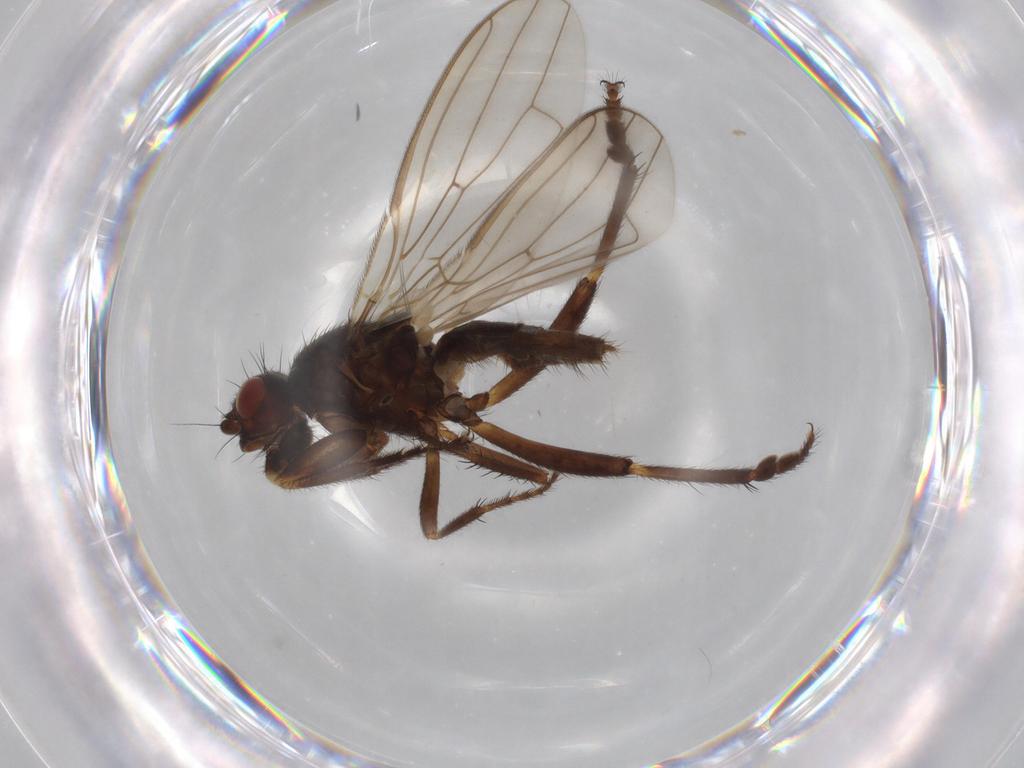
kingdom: Animalia
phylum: Arthropoda
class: Insecta
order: Diptera
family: Sphaeroceridae
